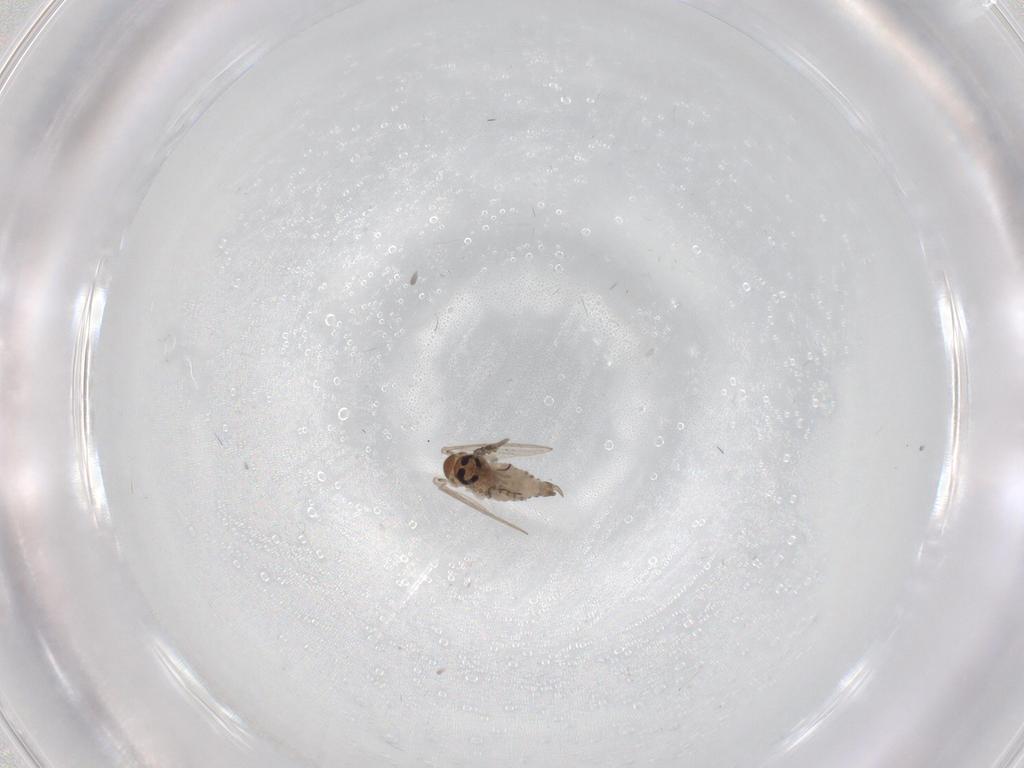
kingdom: Animalia
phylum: Arthropoda
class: Insecta
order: Diptera
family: Psychodidae
